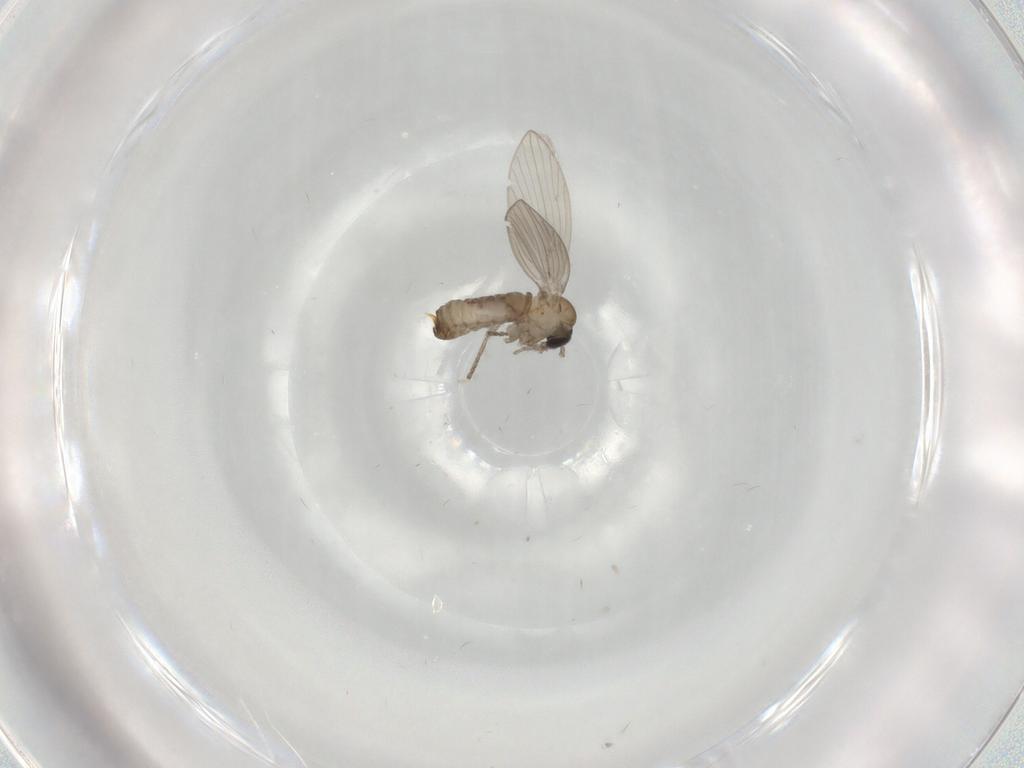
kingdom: Animalia
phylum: Arthropoda
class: Insecta
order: Diptera
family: Psychodidae
